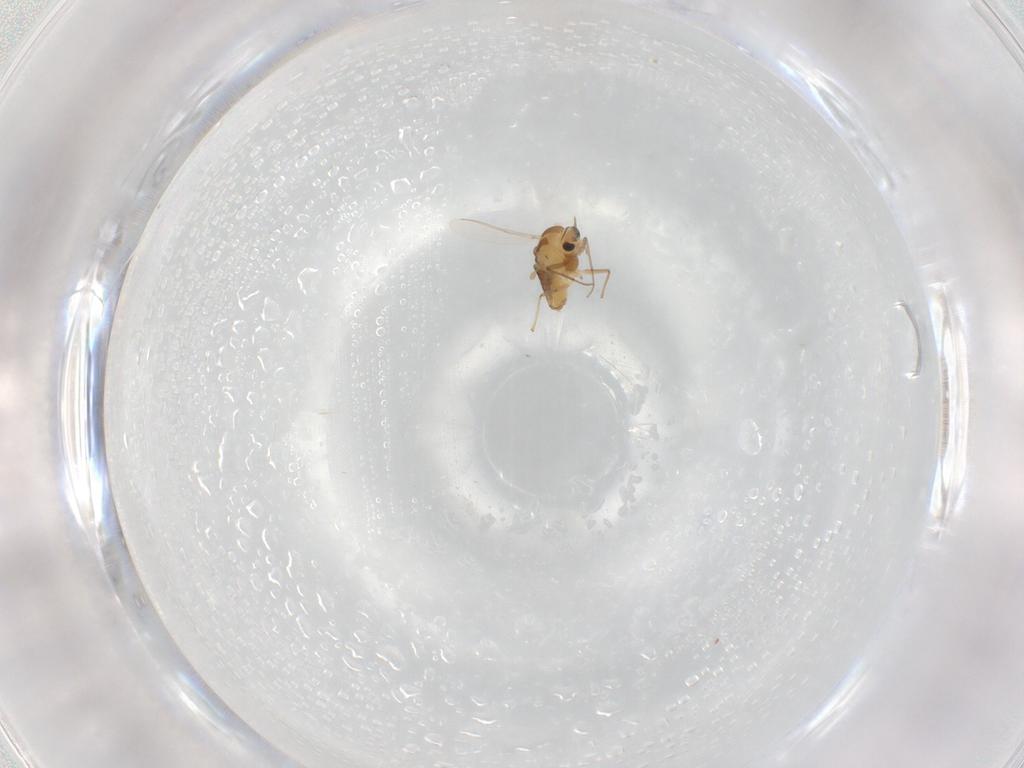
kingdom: Animalia
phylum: Arthropoda
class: Insecta
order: Diptera
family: Chironomidae
